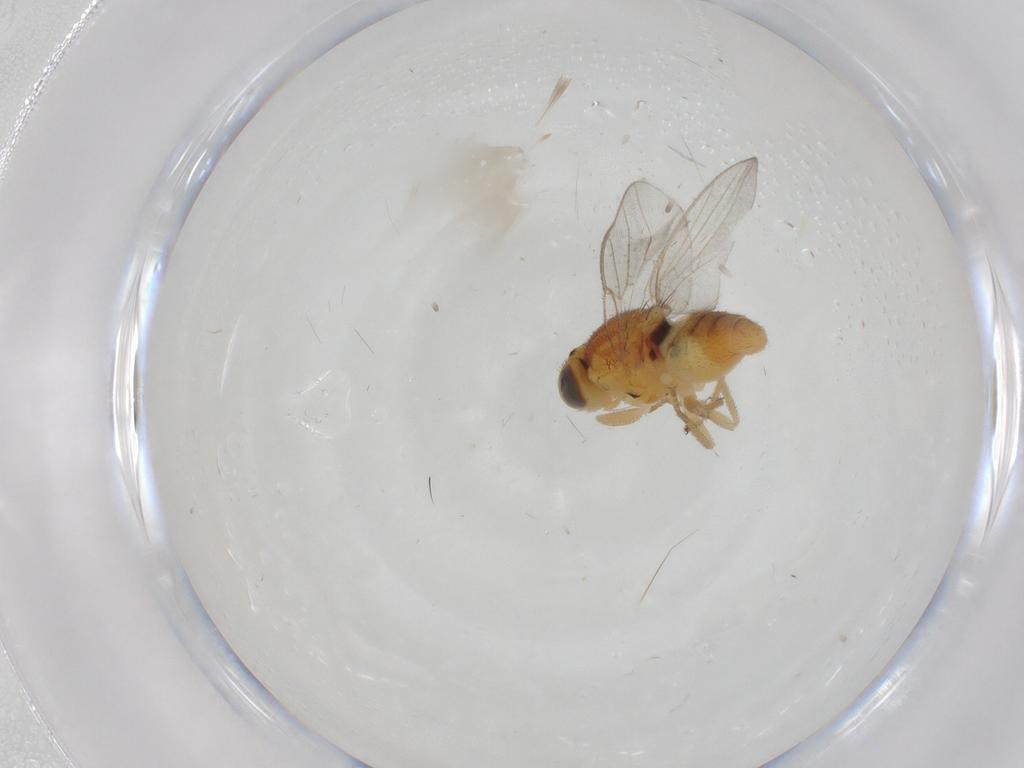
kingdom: Animalia
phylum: Arthropoda
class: Insecta
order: Diptera
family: Chloropidae
